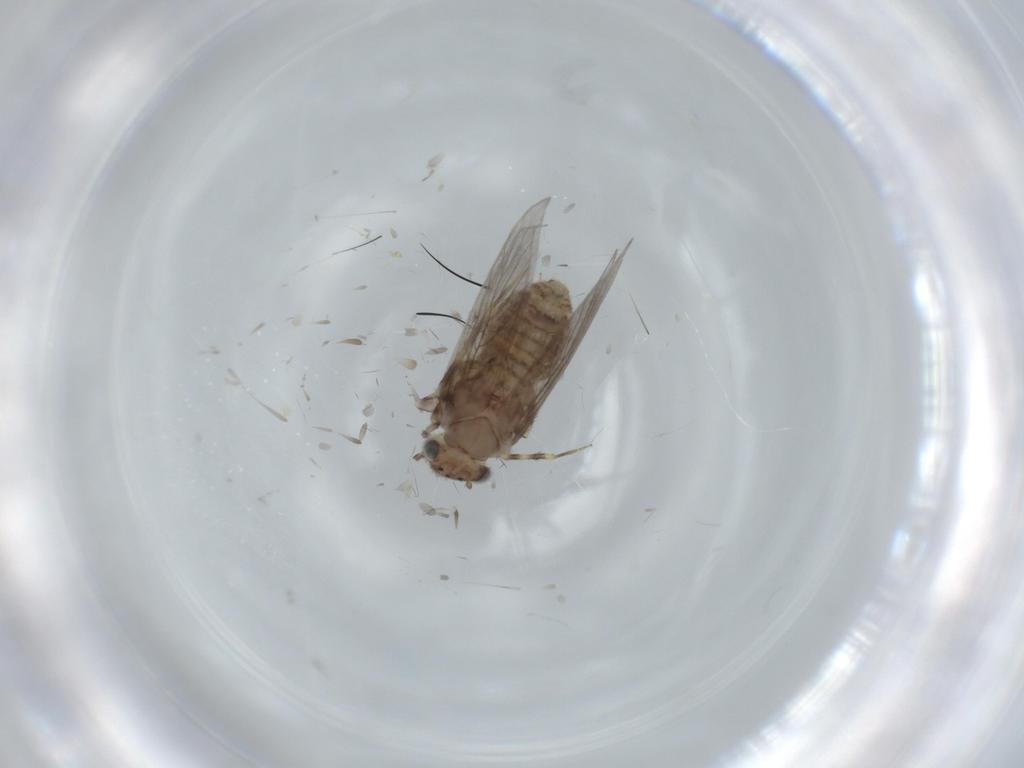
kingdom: Animalia
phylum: Arthropoda
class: Insecta
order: Psocodea
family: Lepidopsocidae
